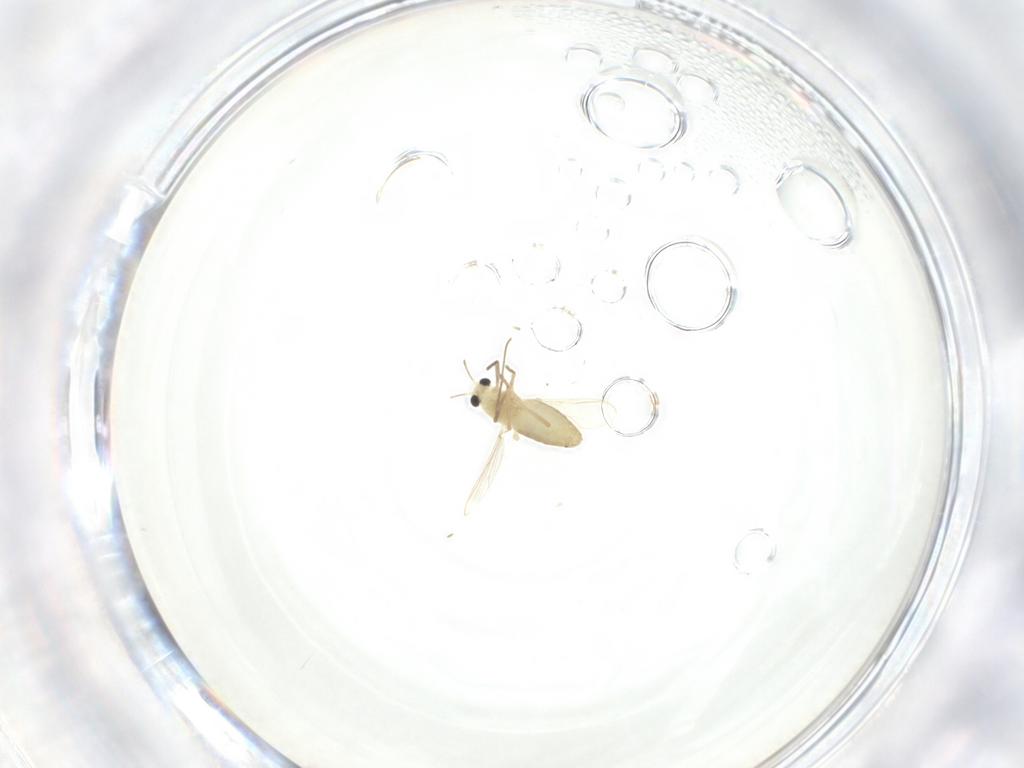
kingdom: Animalia
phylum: Arthropoda
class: Insecta
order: Diptera
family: Chironomidae
